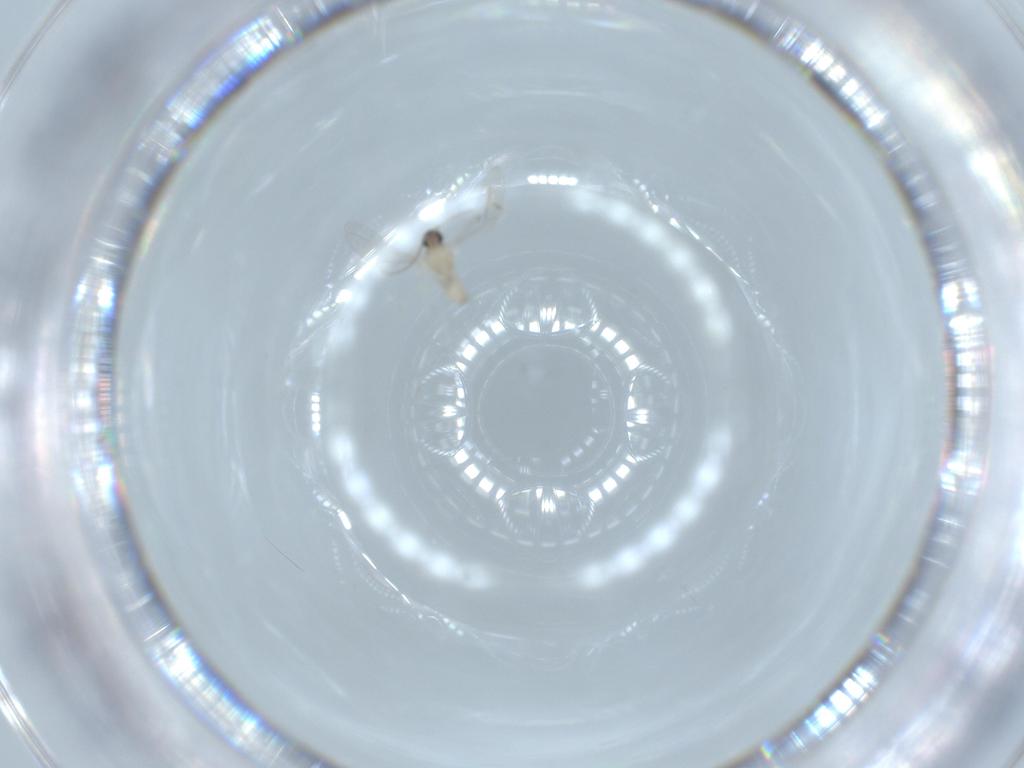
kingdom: Animalia
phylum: Arthropoda
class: Insecta
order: Diptera
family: Cecidomyiidae
